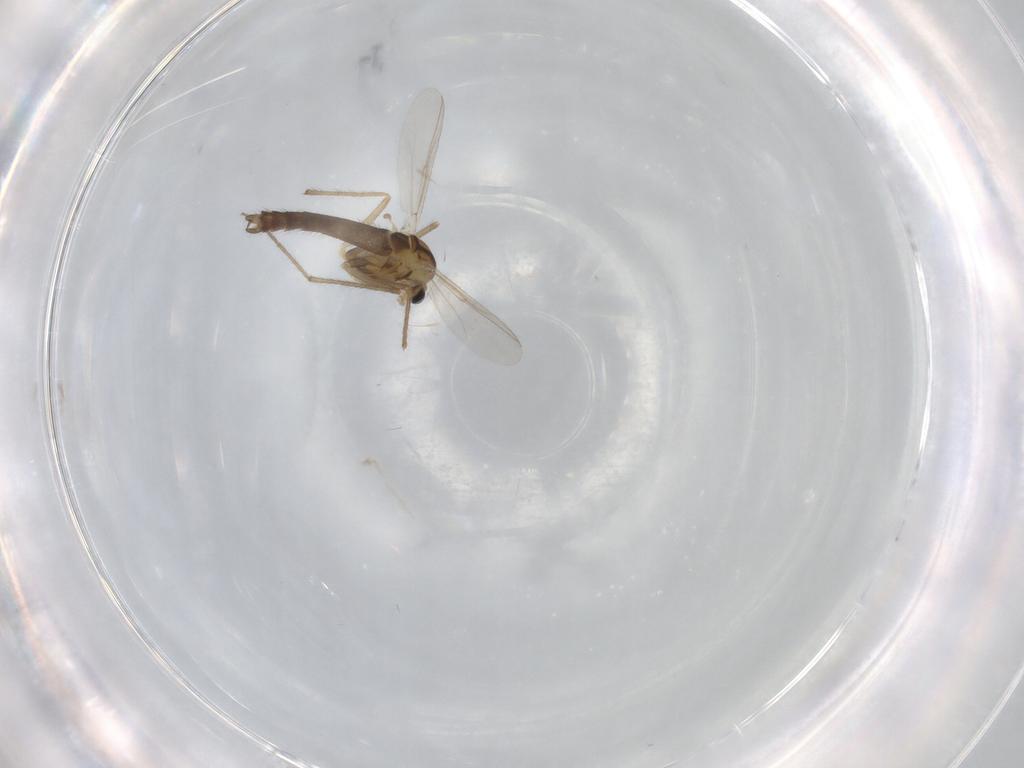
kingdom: Animalia
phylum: Arthropoda
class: Insecta
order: Diptera
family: Chironomidae
